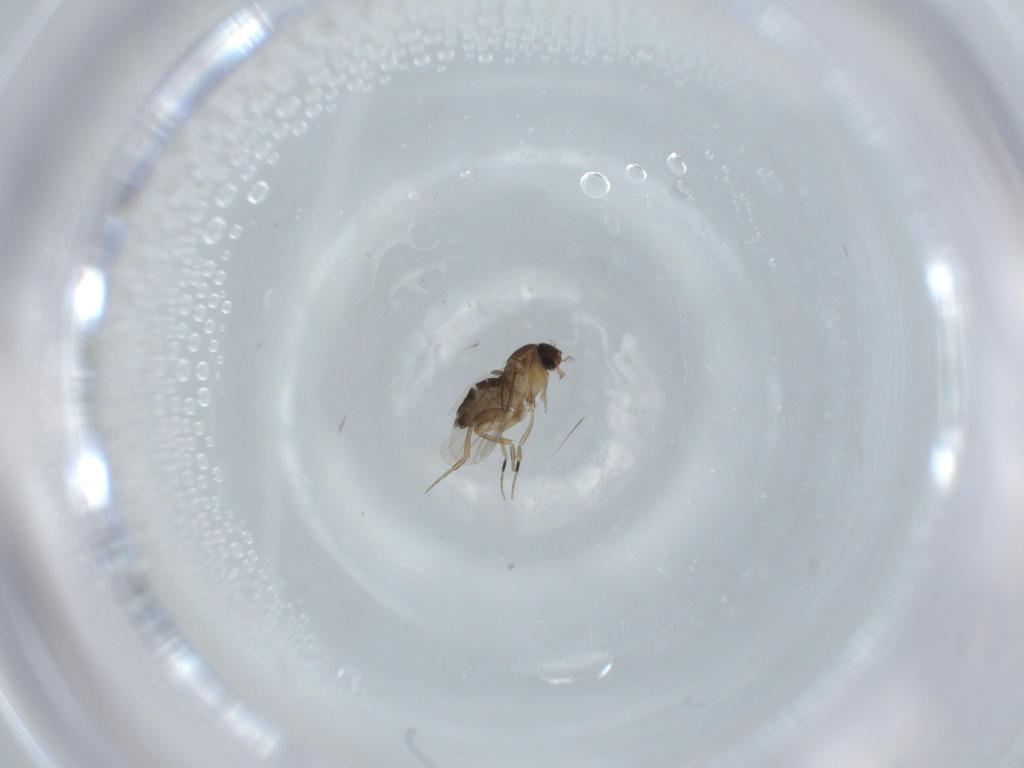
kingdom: Animalia
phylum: Arthropoda
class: Insecta
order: Diptera
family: Phoridae
